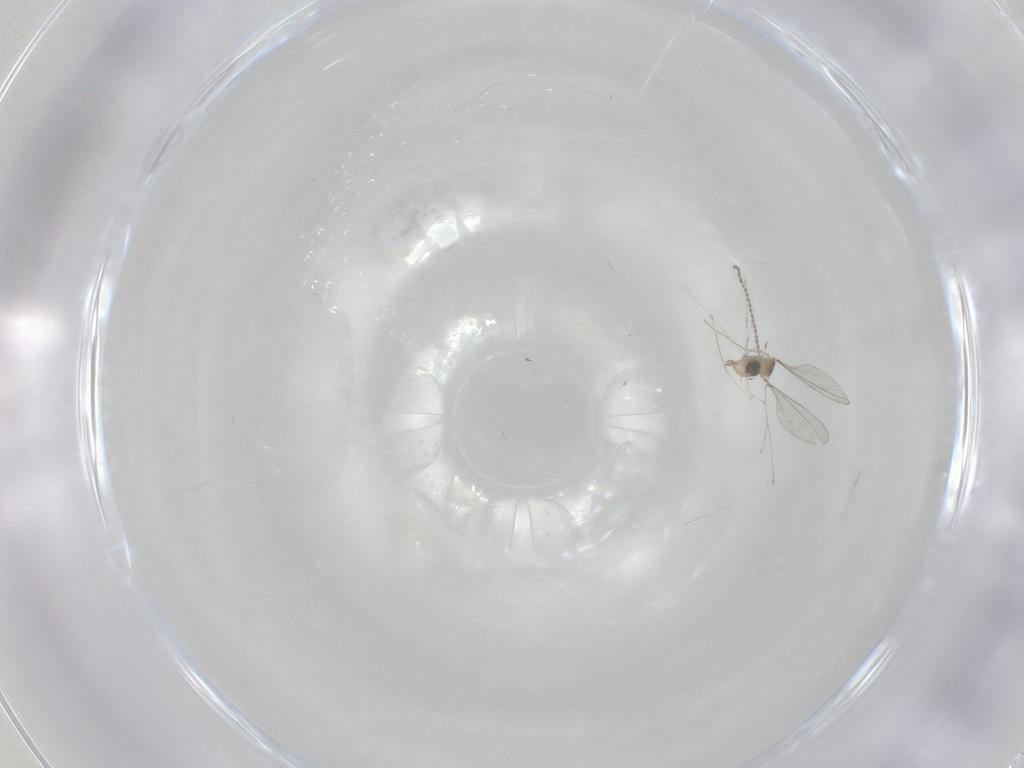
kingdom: Animalia
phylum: Arthropoda
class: Insecta
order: Diptera
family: Cecidomyiidae
